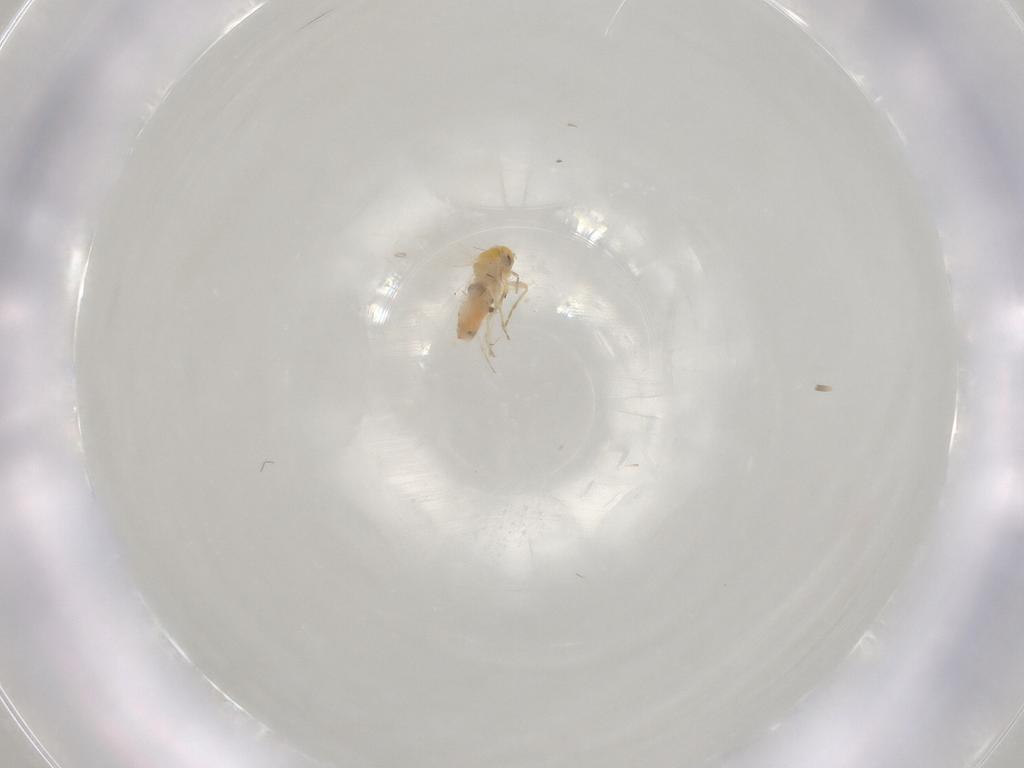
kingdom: Animalia
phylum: Arthropoda
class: Insecta
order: Hemiptera
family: Aleyrodidae
